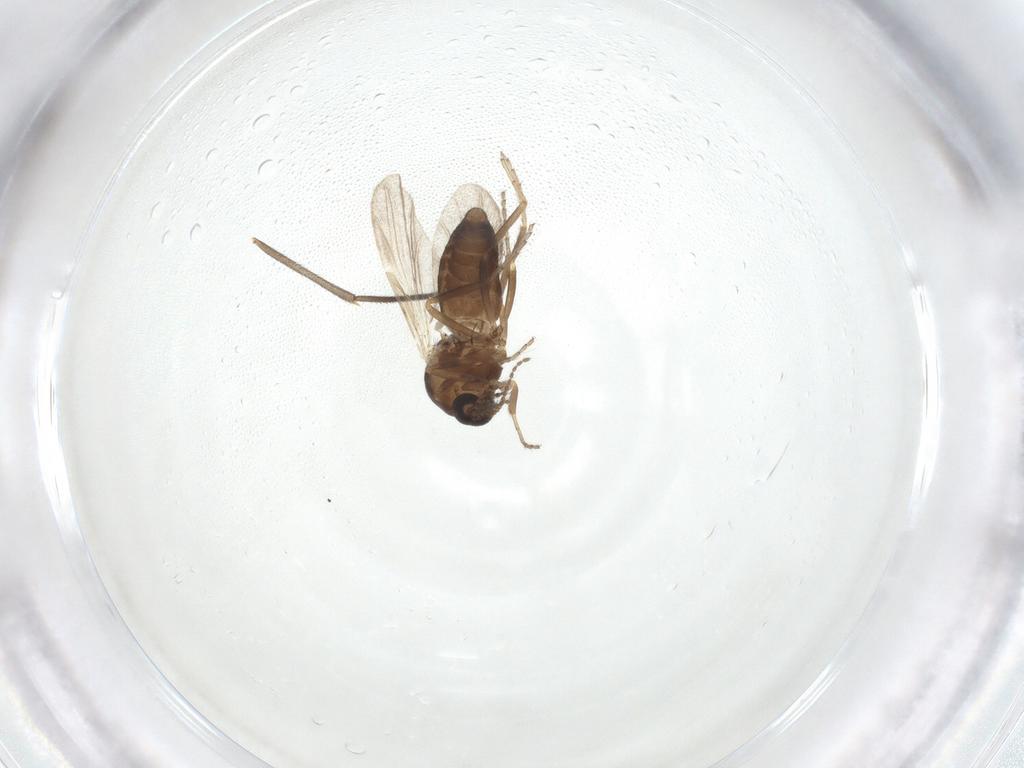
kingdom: Animalia
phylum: Arthropoda
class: Insecta
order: Diptera
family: Ceratopogonidae
